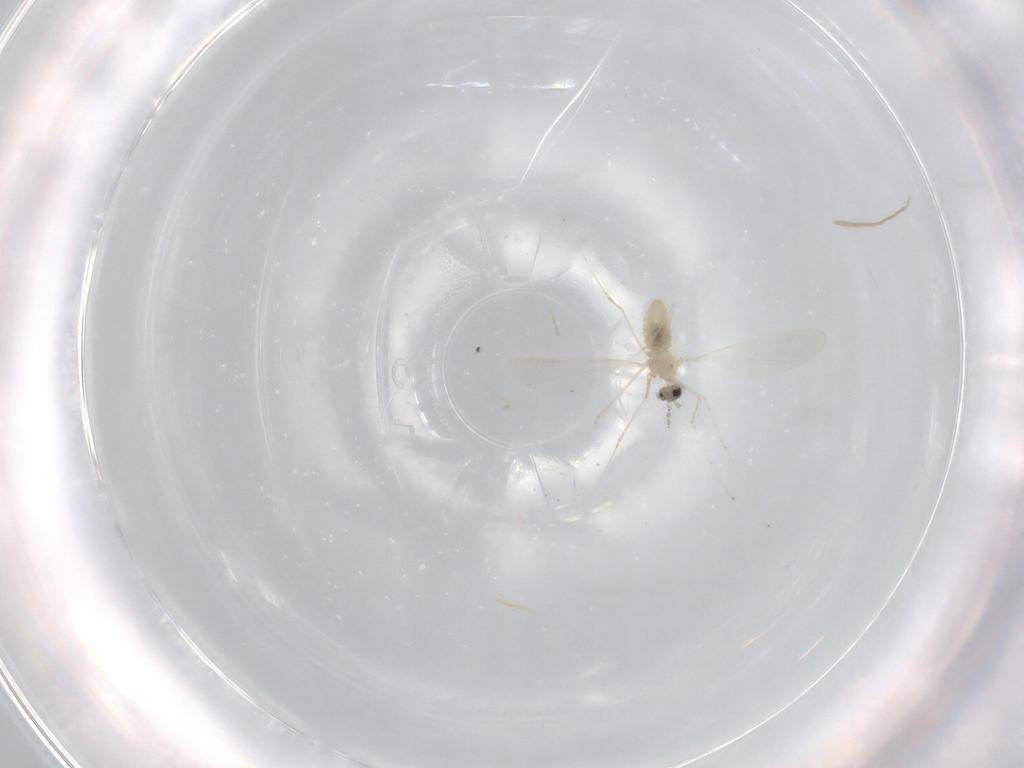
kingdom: Animalia
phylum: Arthropoda
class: Insecta
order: Diptera
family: Cecidomyiidae
